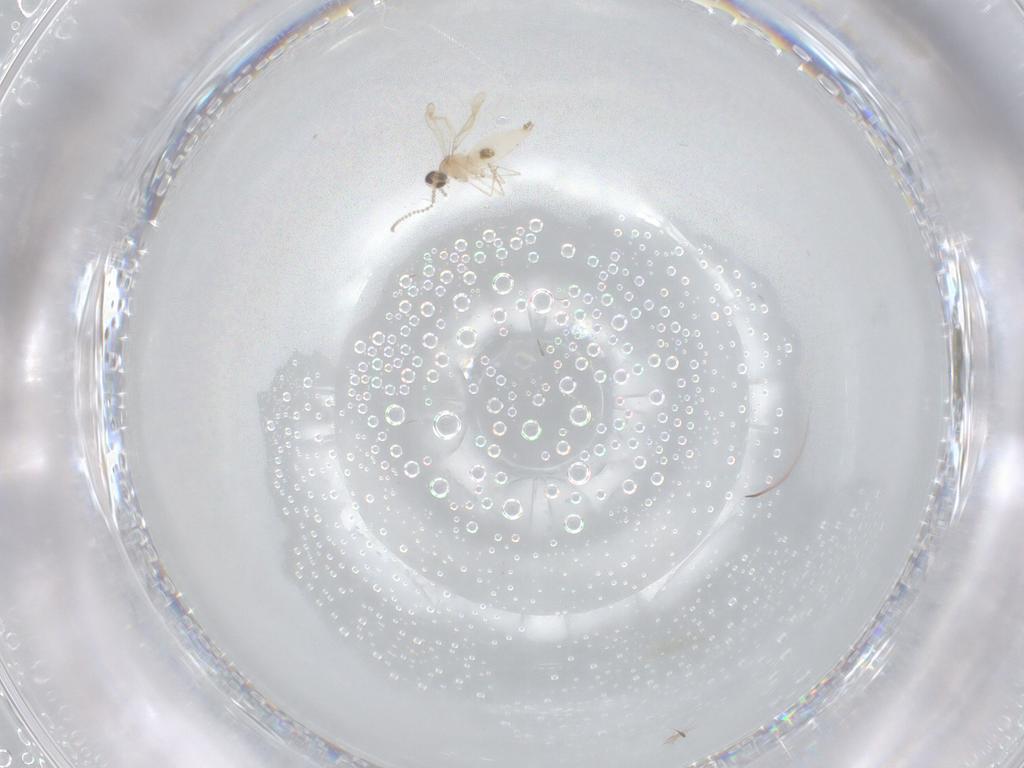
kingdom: Animalia
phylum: Arthropoda
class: Insecta
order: Diptera
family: Cecidomyiidae
